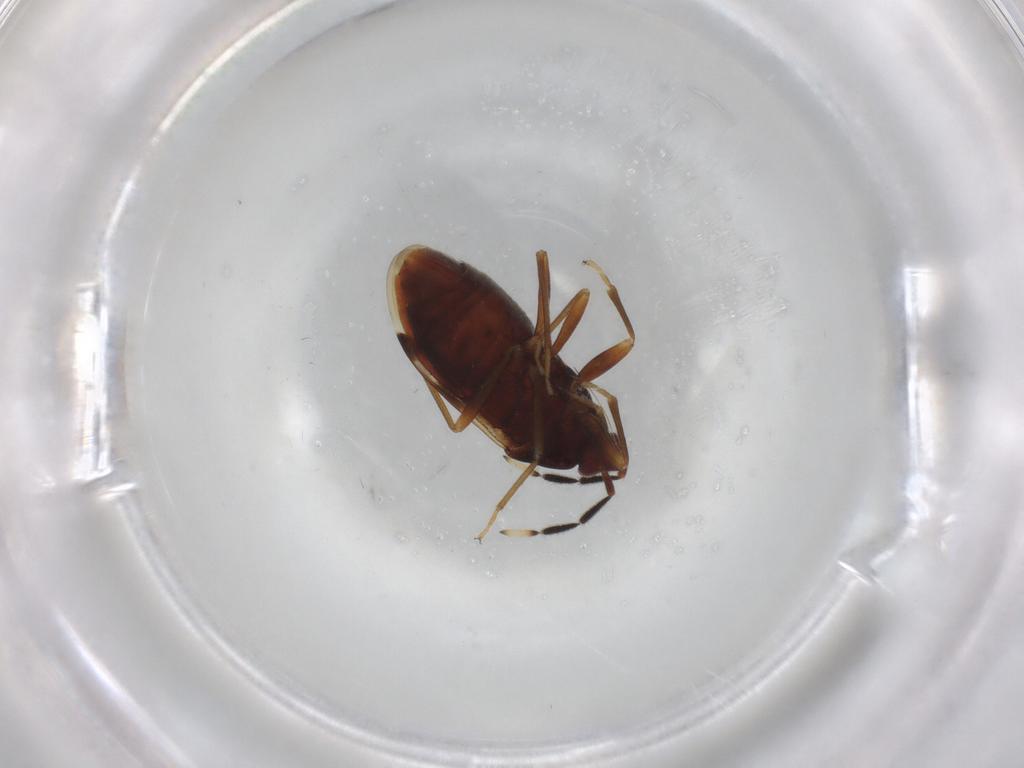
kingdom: Animalia
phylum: Arthropoda
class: Insecta
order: Hemiptera
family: Rhyparochromidae
